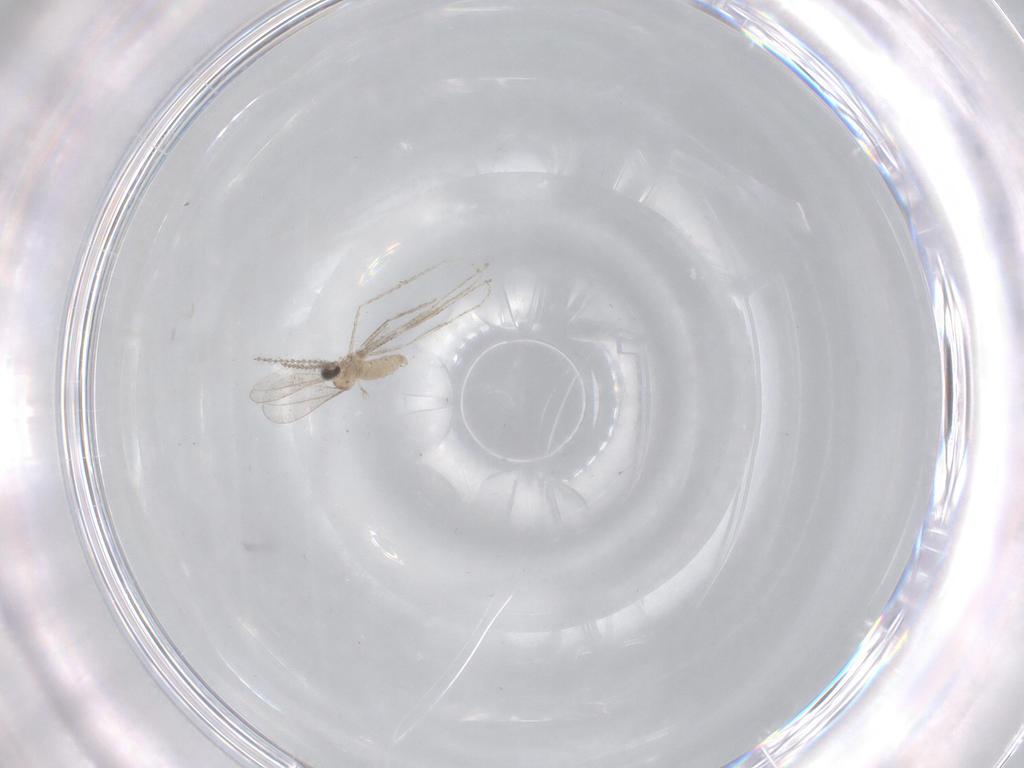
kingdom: Animalia
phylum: Arthropoda
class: Insecta
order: Diptera
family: Cecidomyiidae
